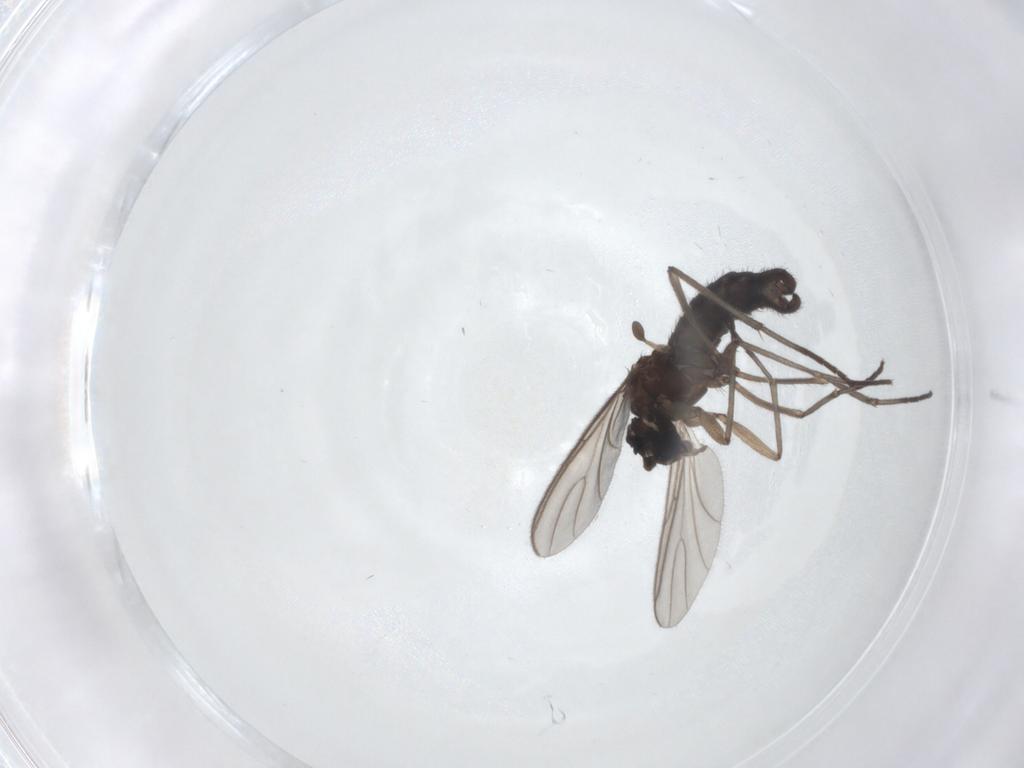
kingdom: Animalia
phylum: Arthropoda
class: Insecta
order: Diptera
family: Sciaridae
